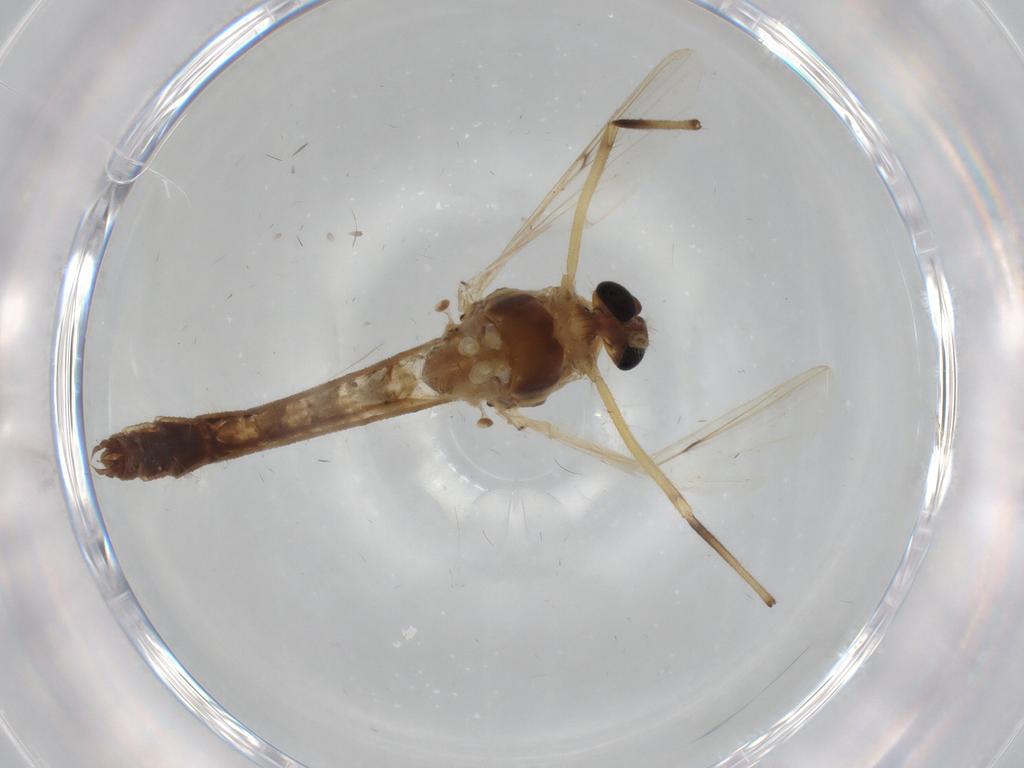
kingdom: Animalia
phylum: Arthropoda
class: Insecta
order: Diptera
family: Chironomidae
